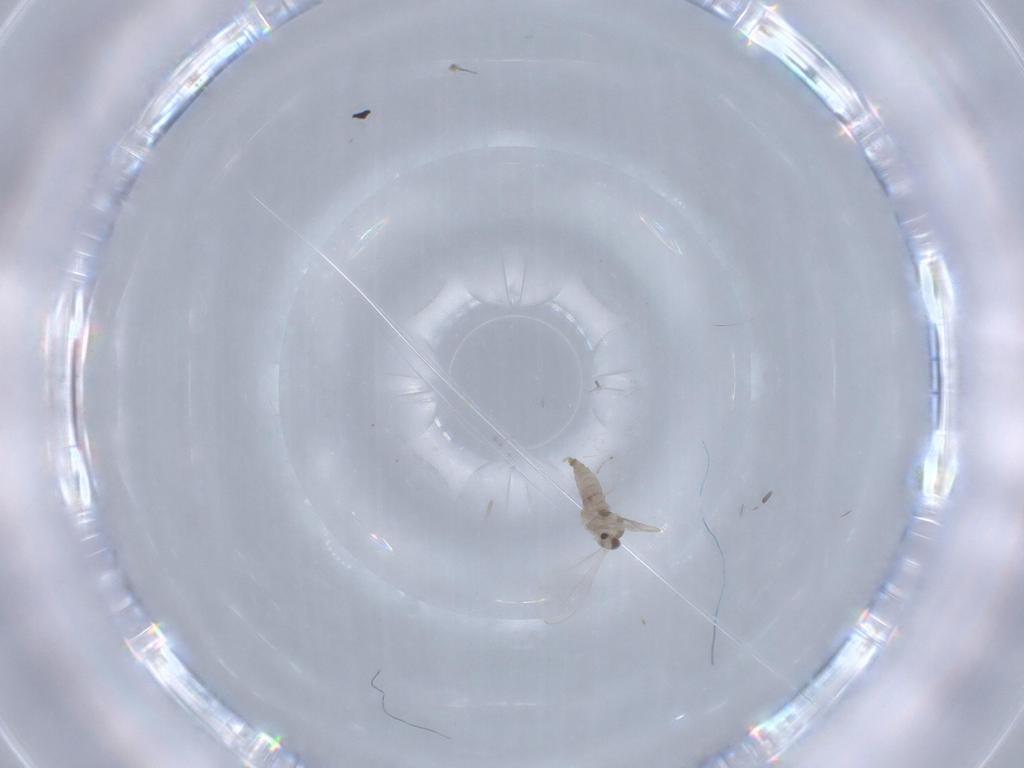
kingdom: Animalia
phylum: Arthropoda
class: Insecta
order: Diptera
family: Cecidomyiidae
